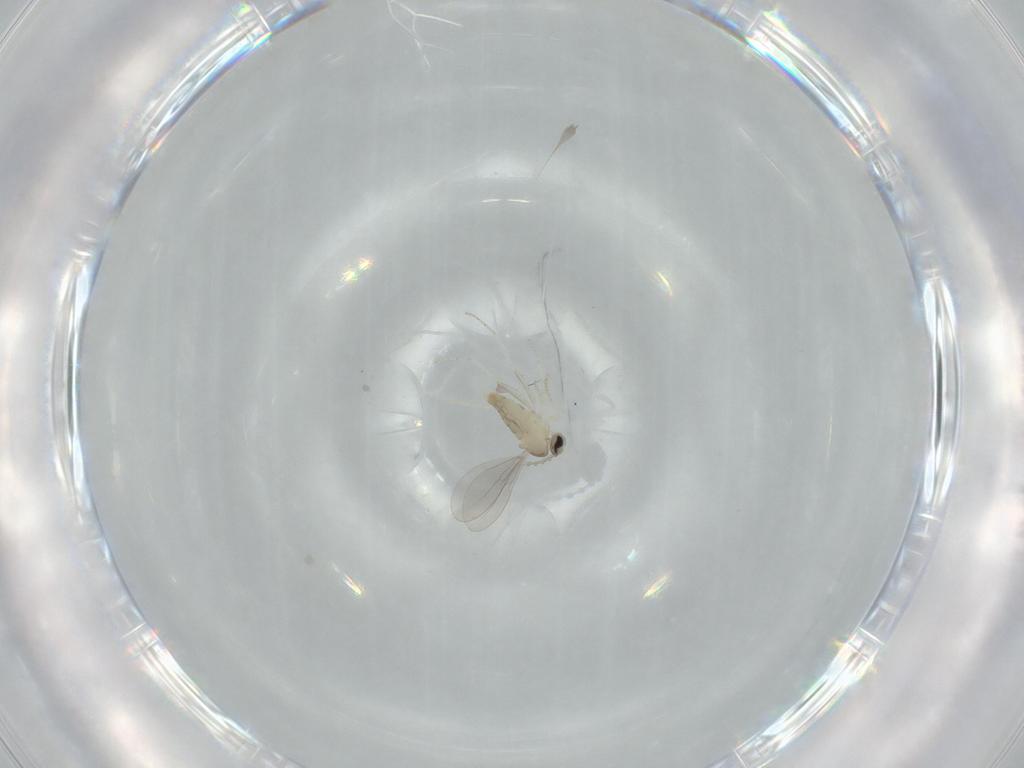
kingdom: Animalia
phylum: Arthropoda
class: Insecta
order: Diptera
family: Cecidomyiidae
